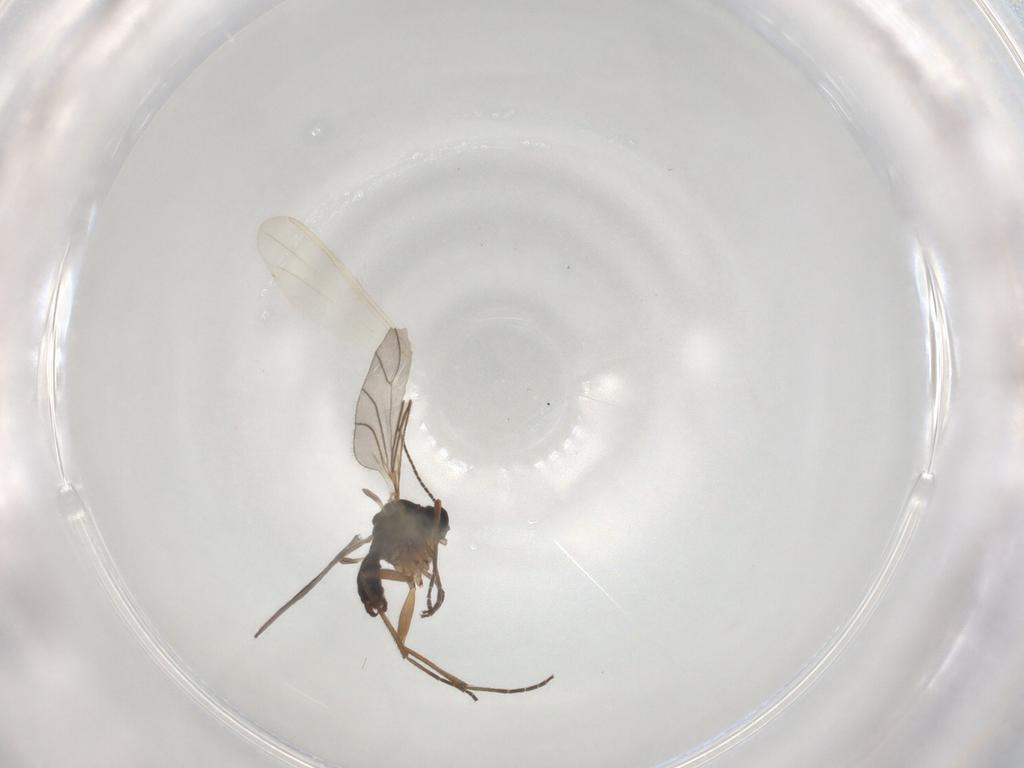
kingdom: Animalia
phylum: Arthropoda
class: Insecta
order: Diptera
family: Sciaridae
